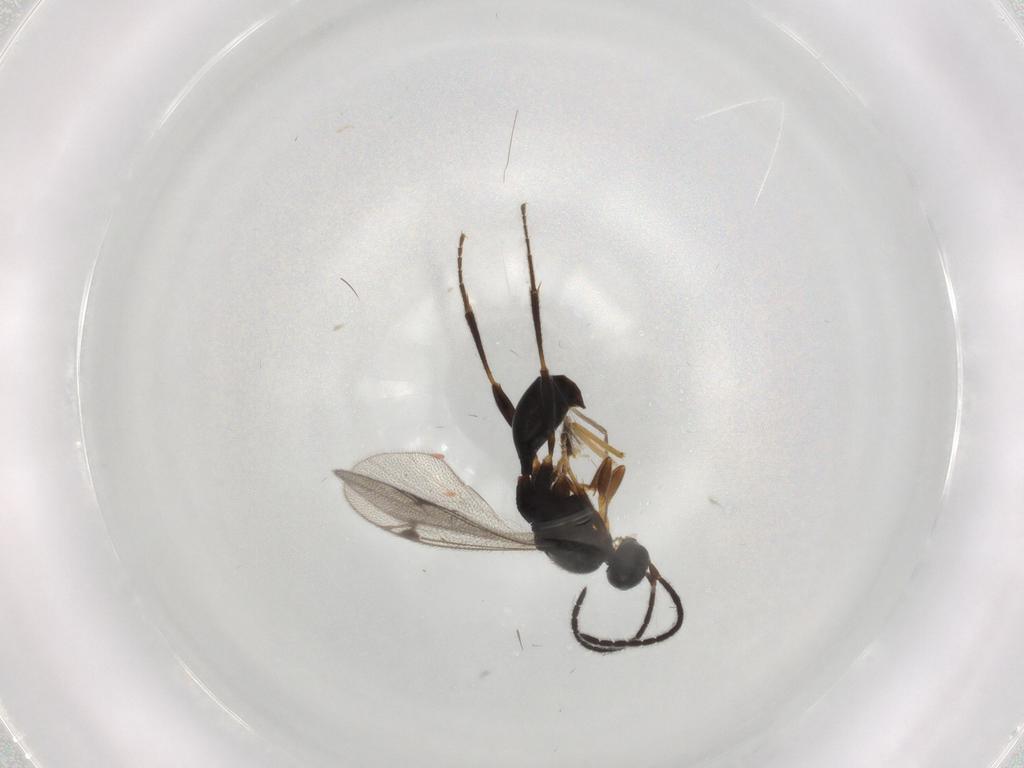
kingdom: Animalia
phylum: Arthropoda
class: Insecta
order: Hymenoptera
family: Proctotrupidae
